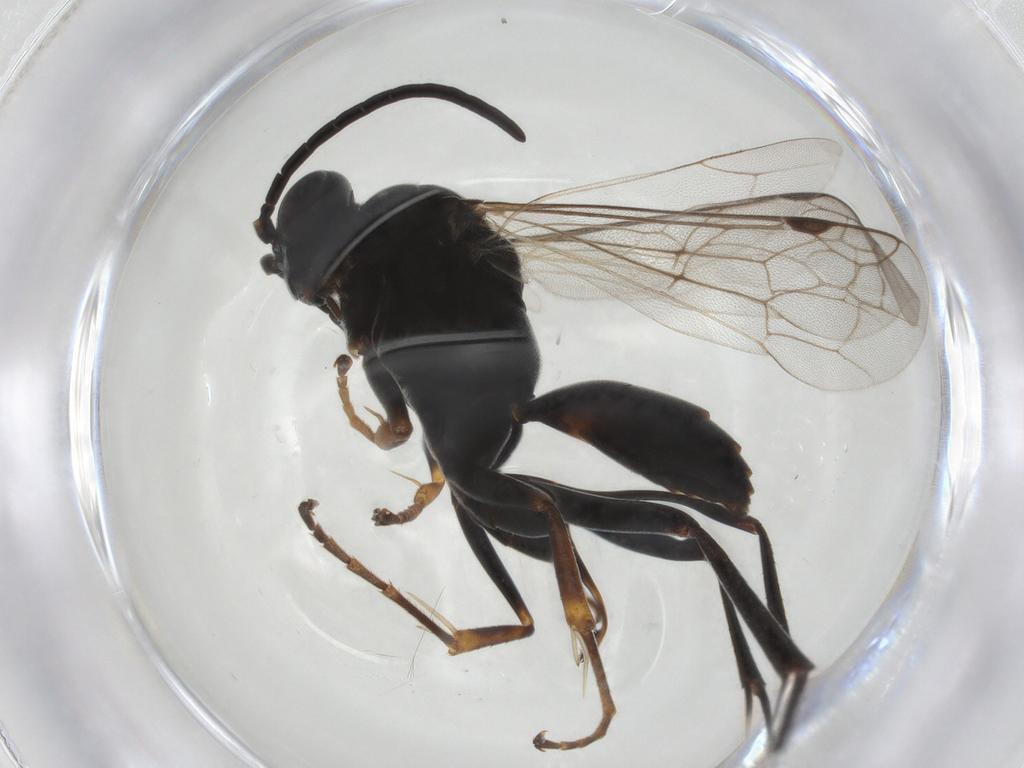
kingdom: Animalia
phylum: Arthropoda
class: Insecta
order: Hymenoptera
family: Pompilidae
